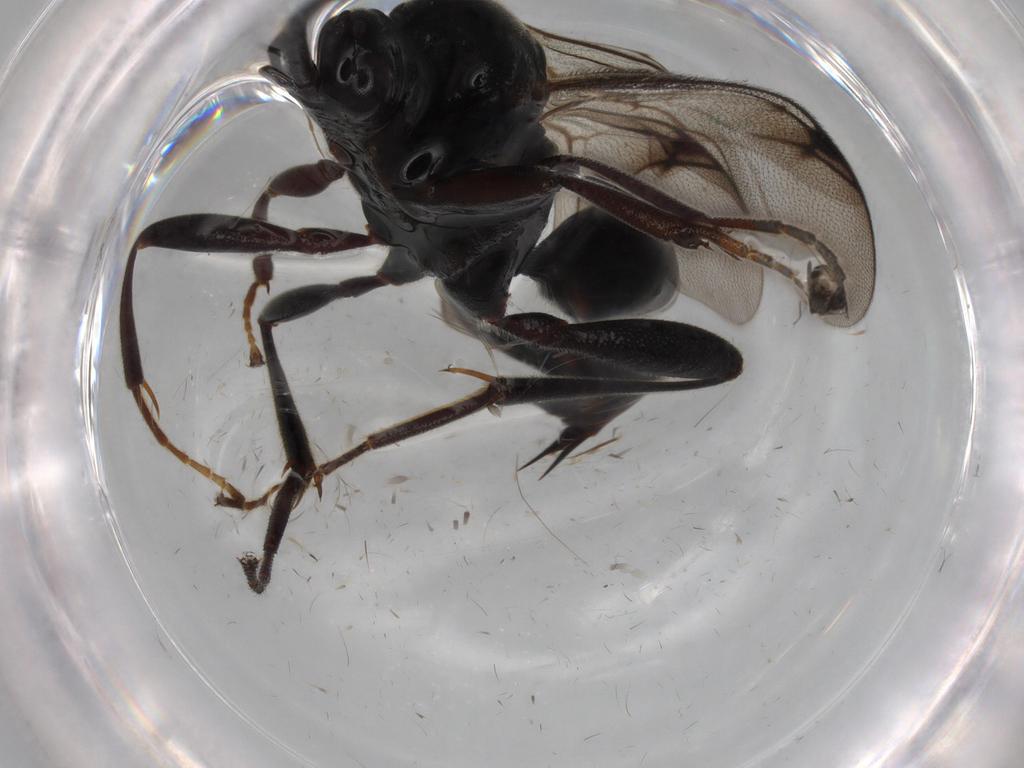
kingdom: Animalia
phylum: Arthropoda
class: Insecta
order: Hymenoptera
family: Proctotrupidae
